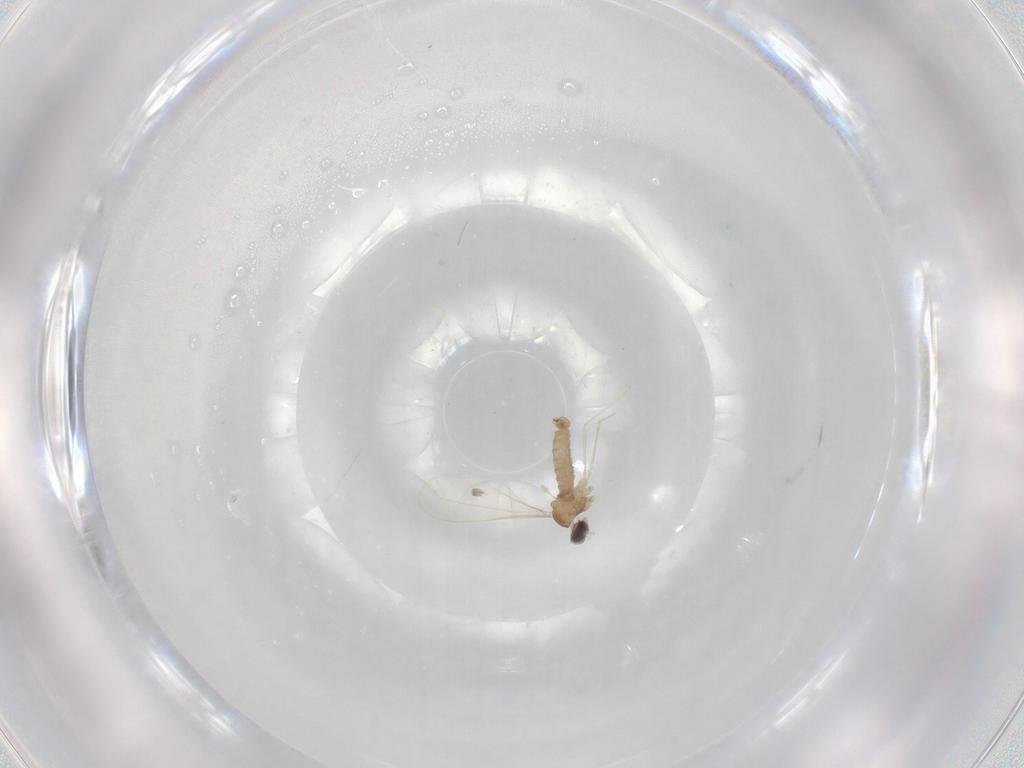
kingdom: Animalia
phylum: Arthropoda
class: Insecta
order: Diptera
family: Cecidomyiidae
